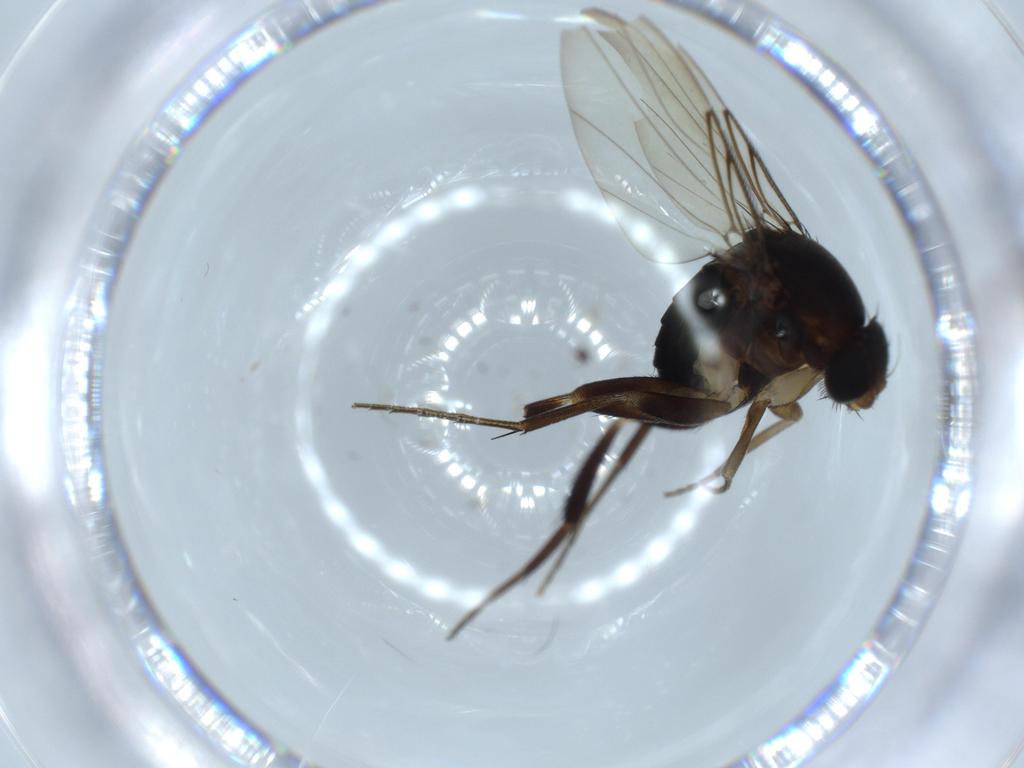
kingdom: Animalia
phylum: Arthropoda
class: Insecta
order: Diptera
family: Phoridae
